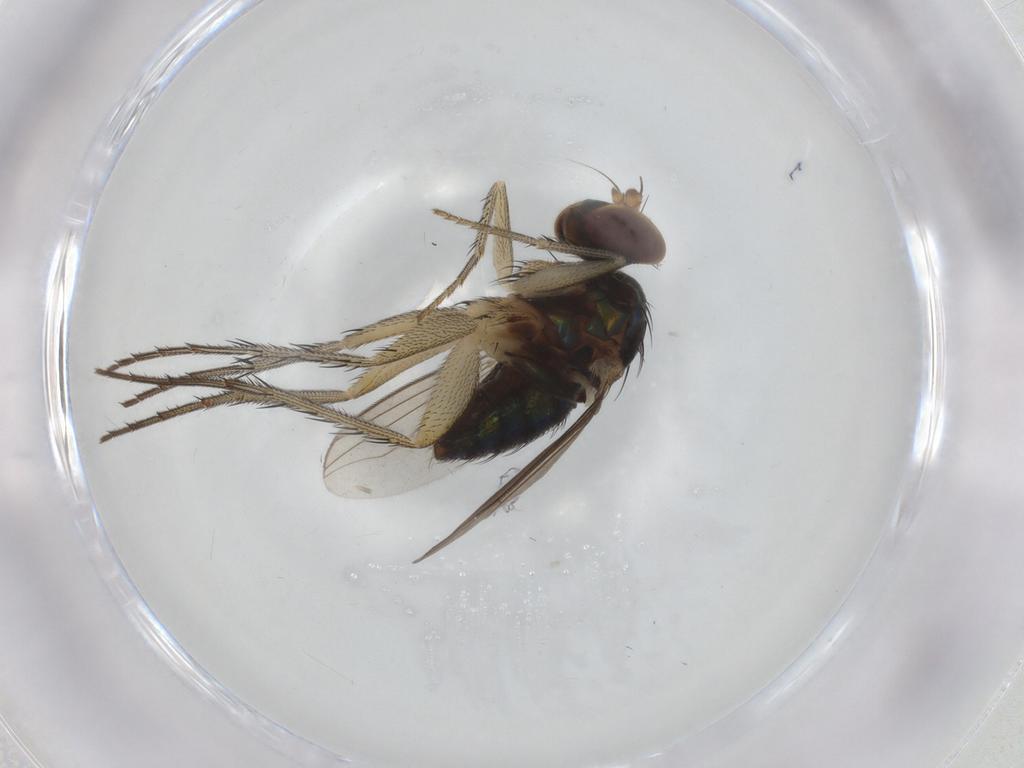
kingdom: Animalia
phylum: Arthropoda
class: Insecta
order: Diptera
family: Dolichopodidae
